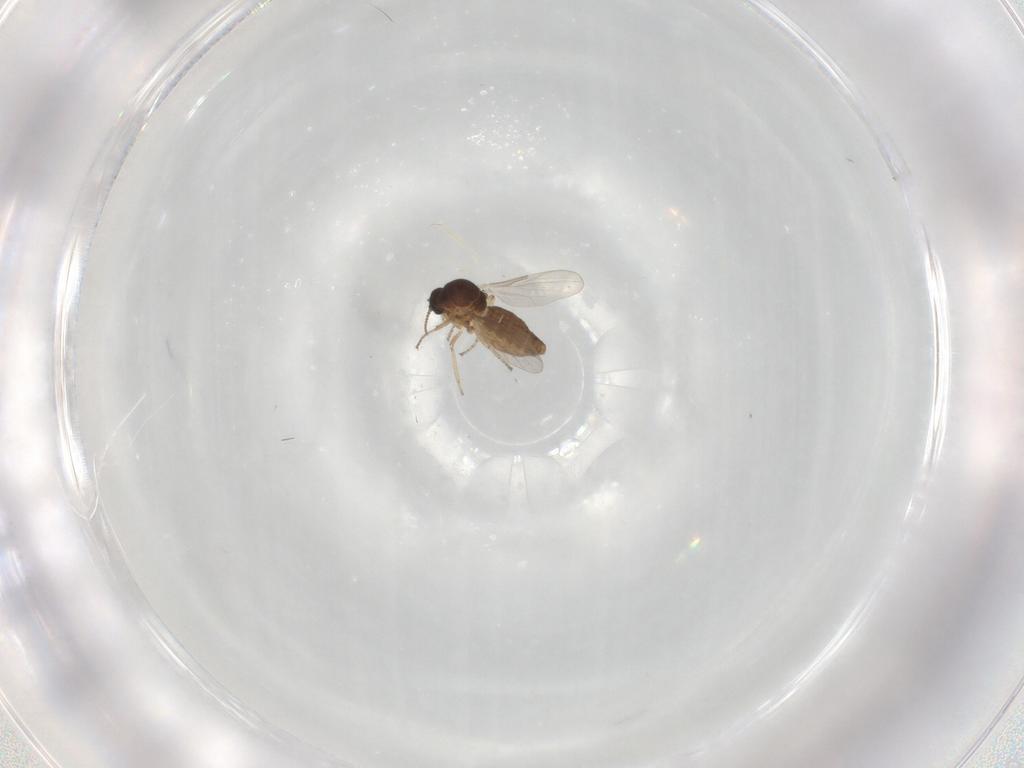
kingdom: Animalia
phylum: Arthropoda
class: Insecta
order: Diptera
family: Ceratopogonidae
